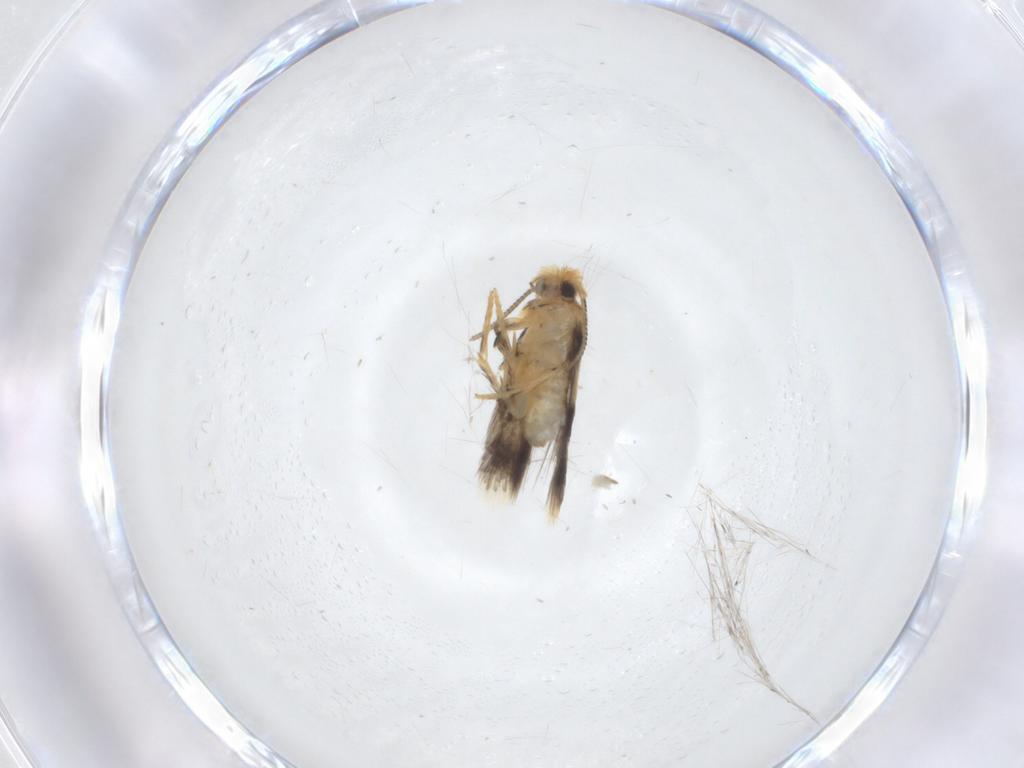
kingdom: Animalia
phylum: Arthropoda
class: Insecta
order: Lepidoptera
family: Nepticulidae
